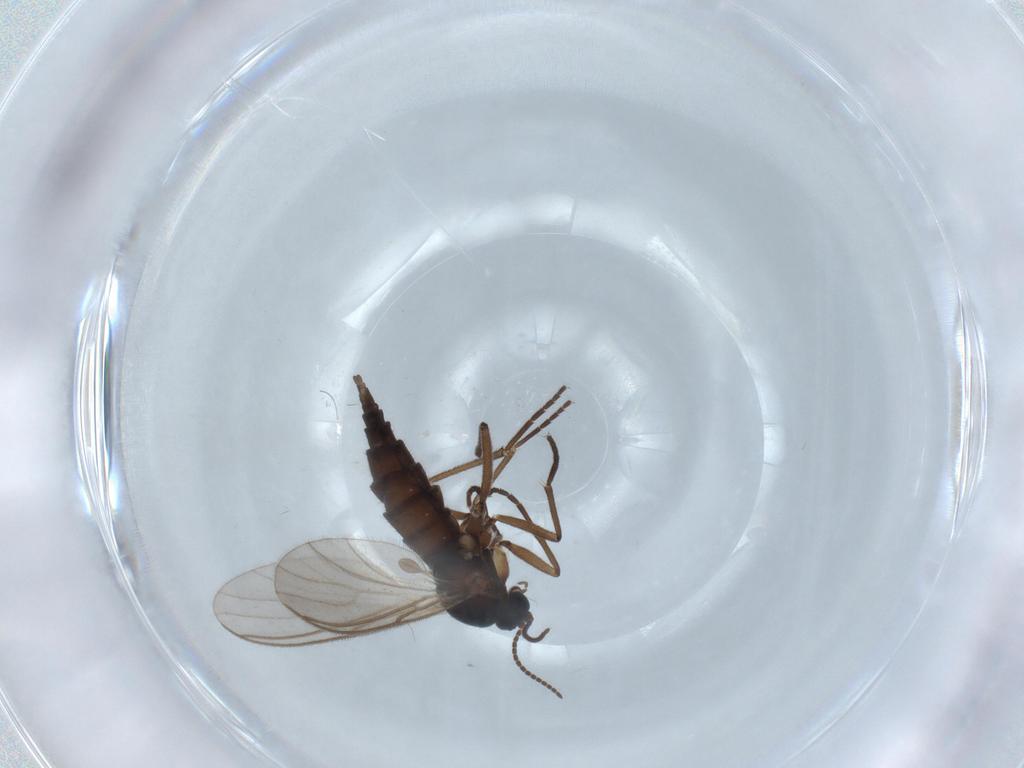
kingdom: Animalia
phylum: Arthropoda
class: Insecta
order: Diptera
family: Sciaridae
